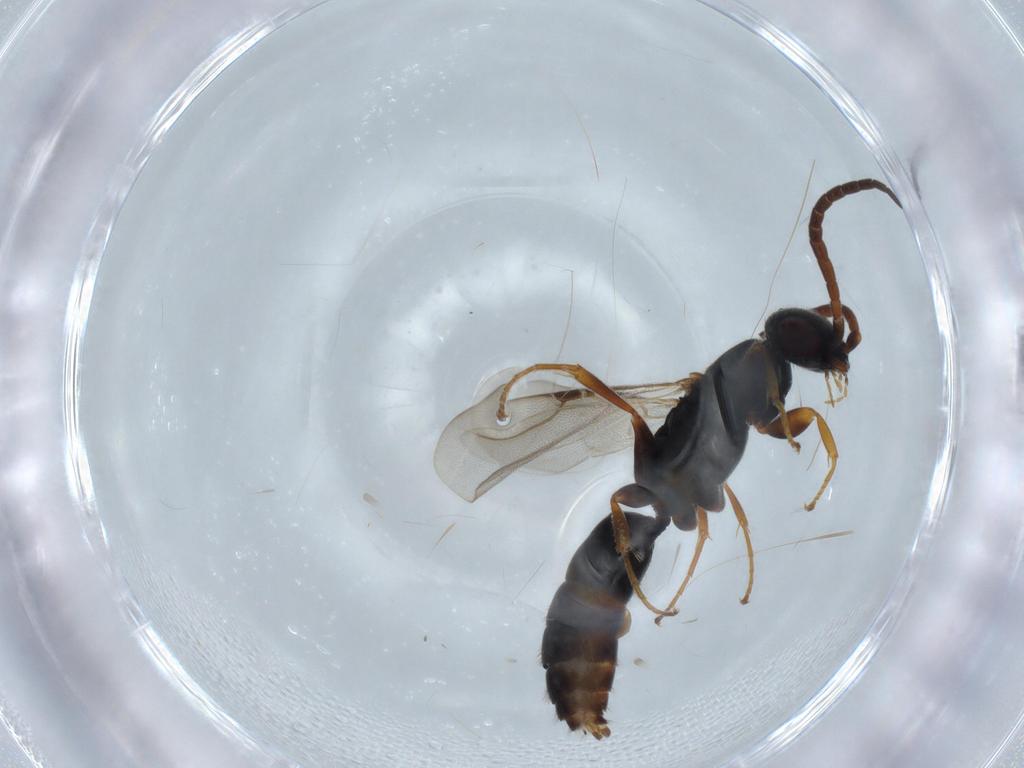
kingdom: Animalia
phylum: Arthropoda
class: Insecta
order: Hymenoptera
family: Bethylidae
